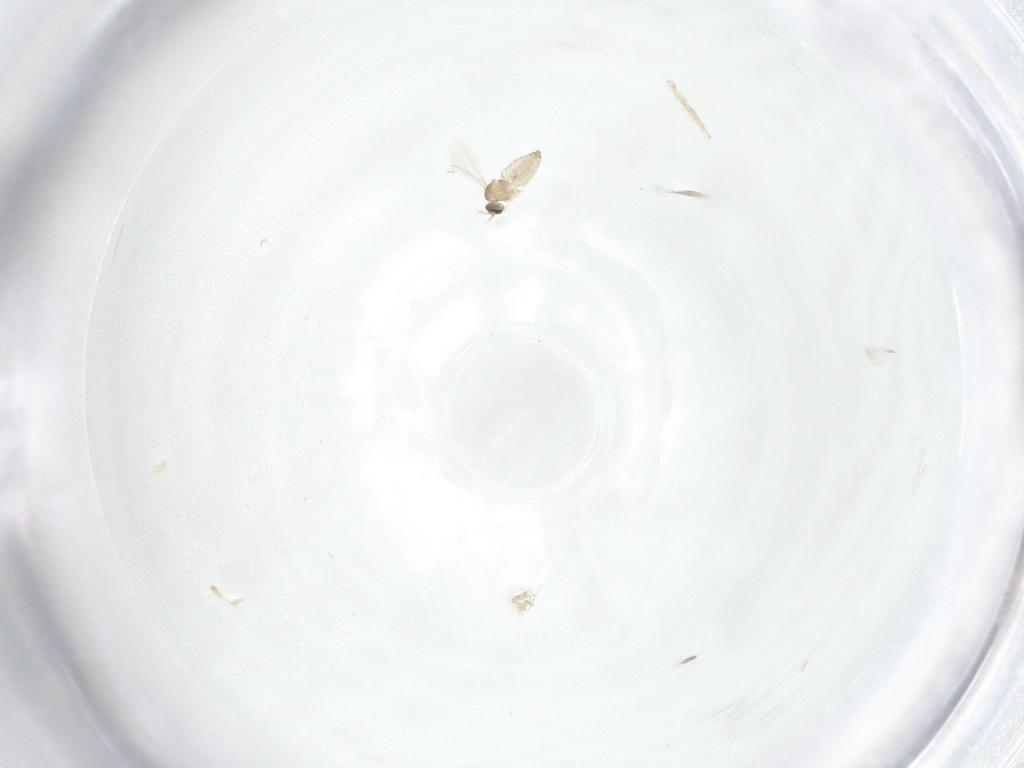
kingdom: Animalia
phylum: Arthropoda
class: Insecta
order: Diptera
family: Cecidomyiidae
